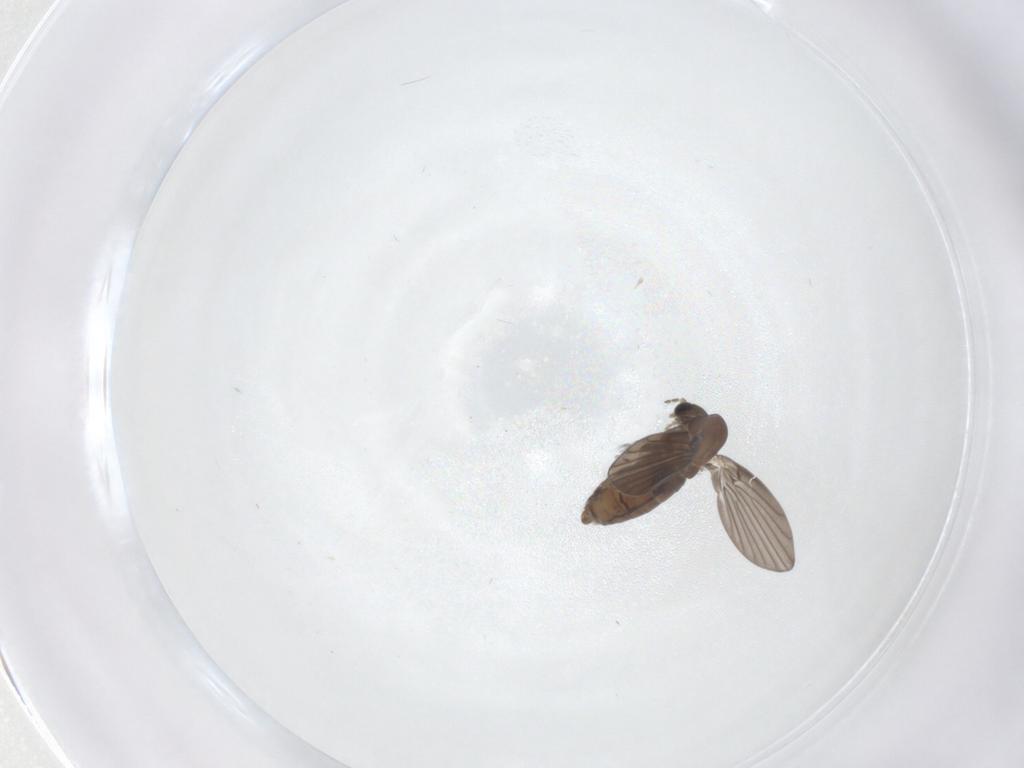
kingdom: Animalia
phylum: Arthropoda
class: Insecta
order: Diptera
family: Psychodidae
